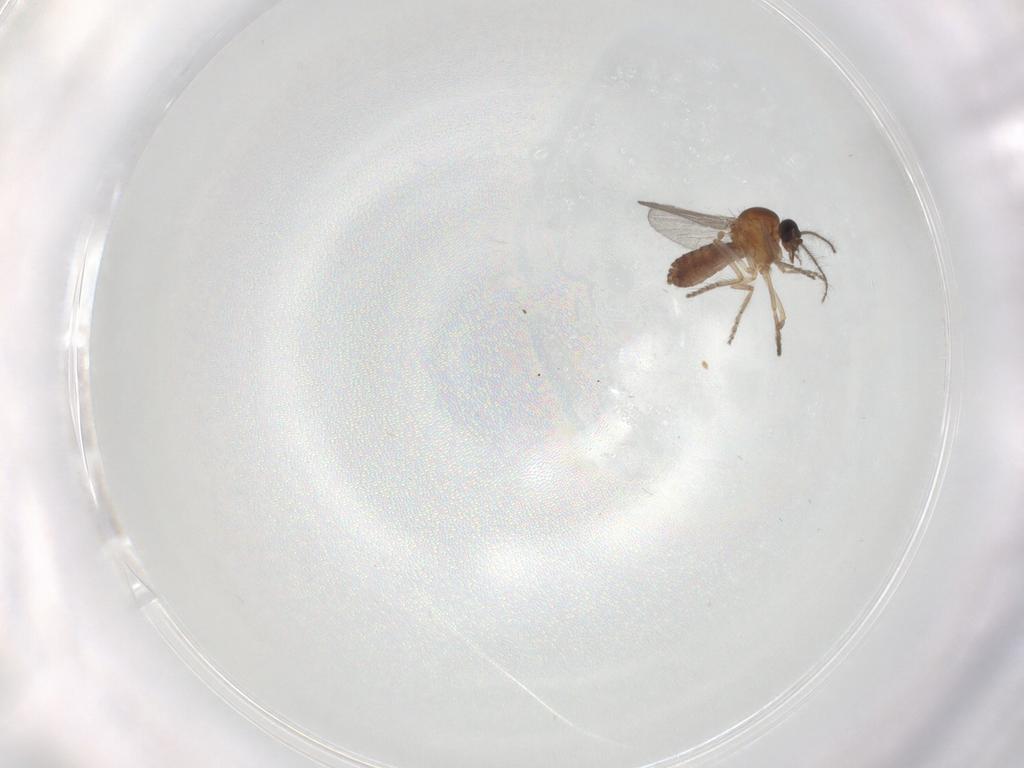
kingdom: Animalia
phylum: Arthropoda
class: Insecta
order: Diptera
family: Ceratopogonidae
